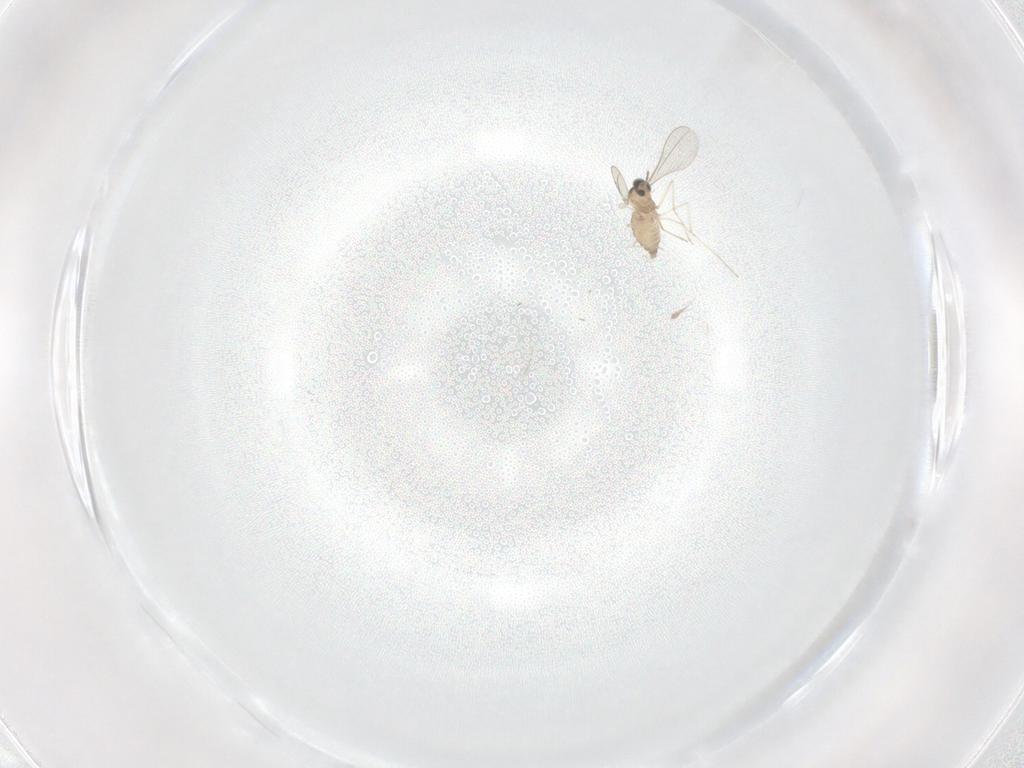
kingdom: Animalia
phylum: Arthropoda
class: Insecta
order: Diptera
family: Cecidomyiidae
